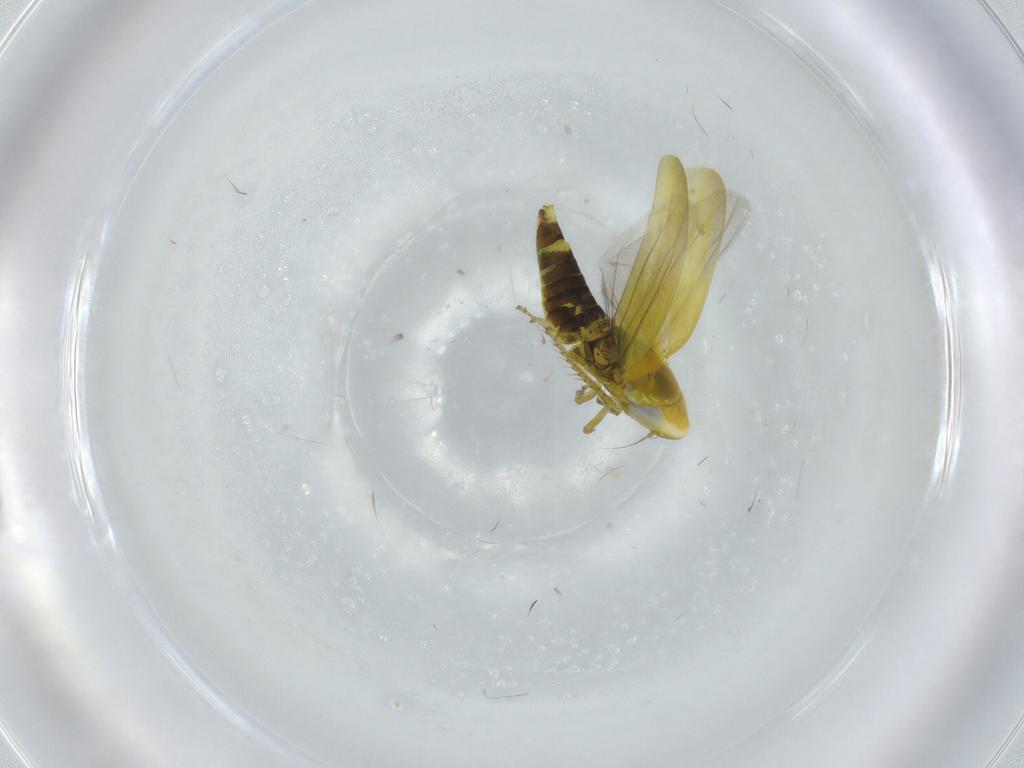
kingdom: Animalia
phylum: Arthropoda
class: Insecta
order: Hemiptera
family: Cicadellidae
